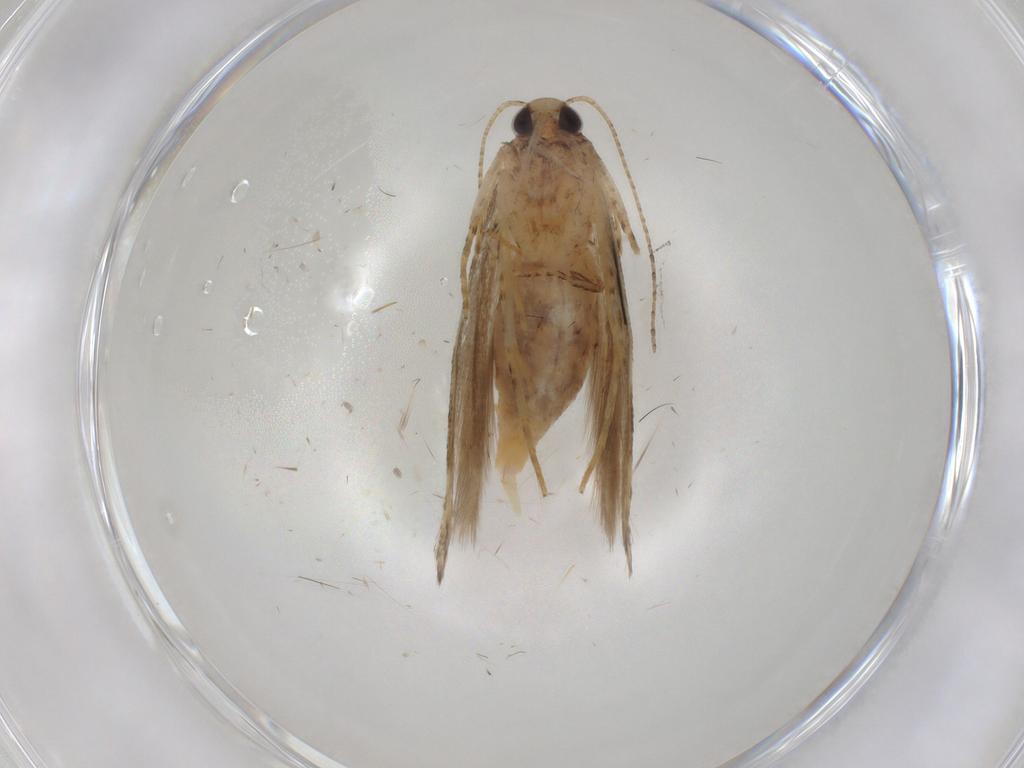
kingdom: Animalia
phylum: Arthropoda
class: Insecta
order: Lepidoptera
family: Gelechiidae
